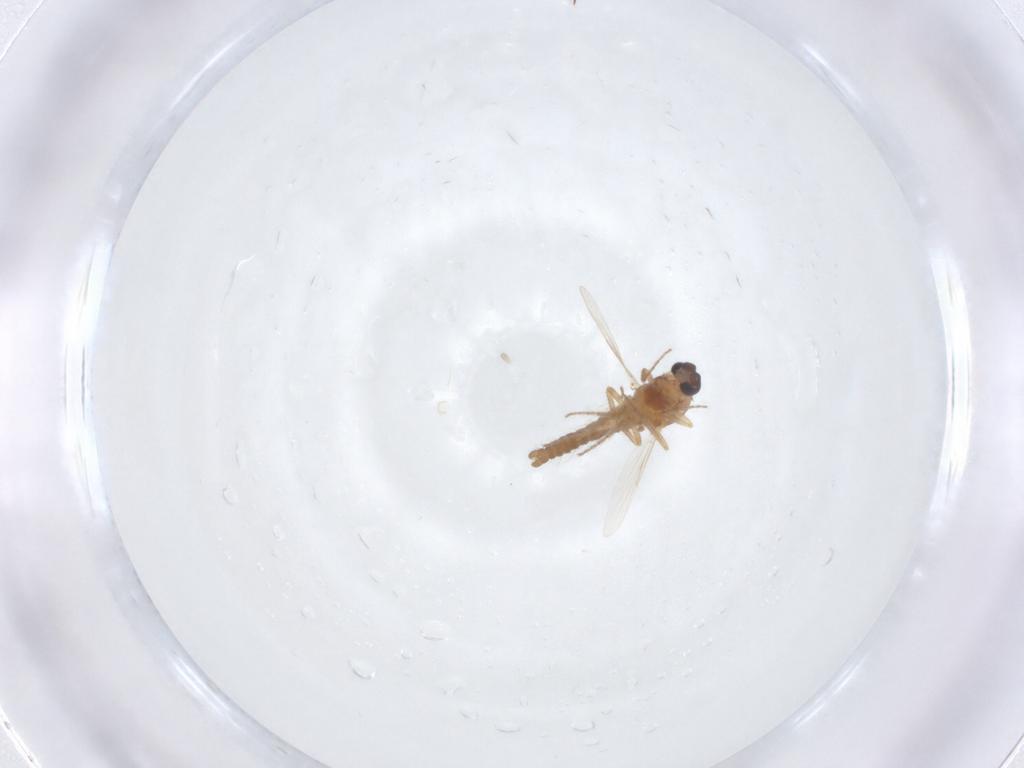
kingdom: Animalia
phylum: Arthropoda
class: Insecta
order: Diptera
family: Ceratopogonidae
